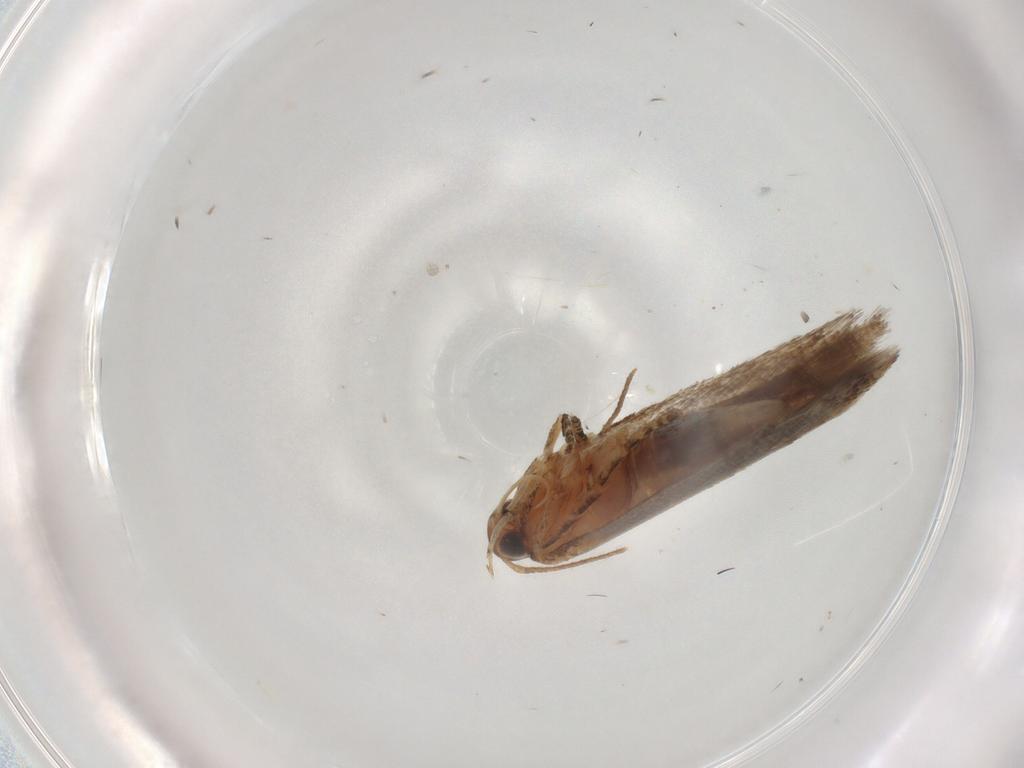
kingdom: Animalia
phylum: Arthropoda
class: Insecta
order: Lepidoptera
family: Gelechiidae
